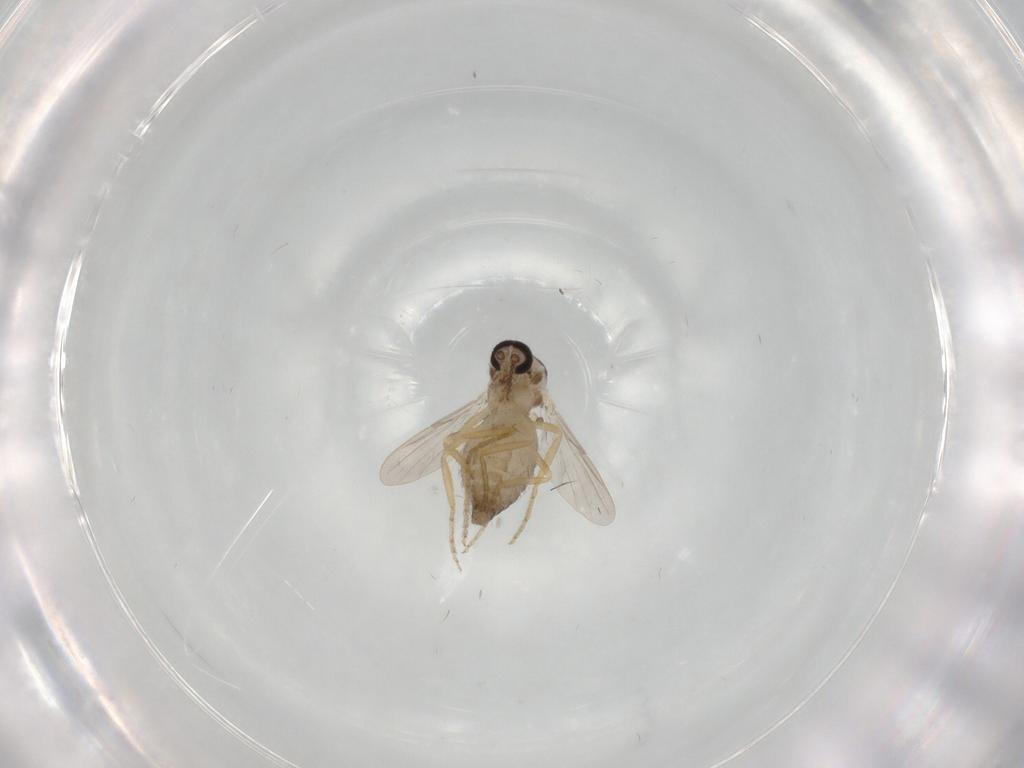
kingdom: Animalia
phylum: Arthropoda
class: Insecta
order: Diptera
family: Ceratopogonidae
